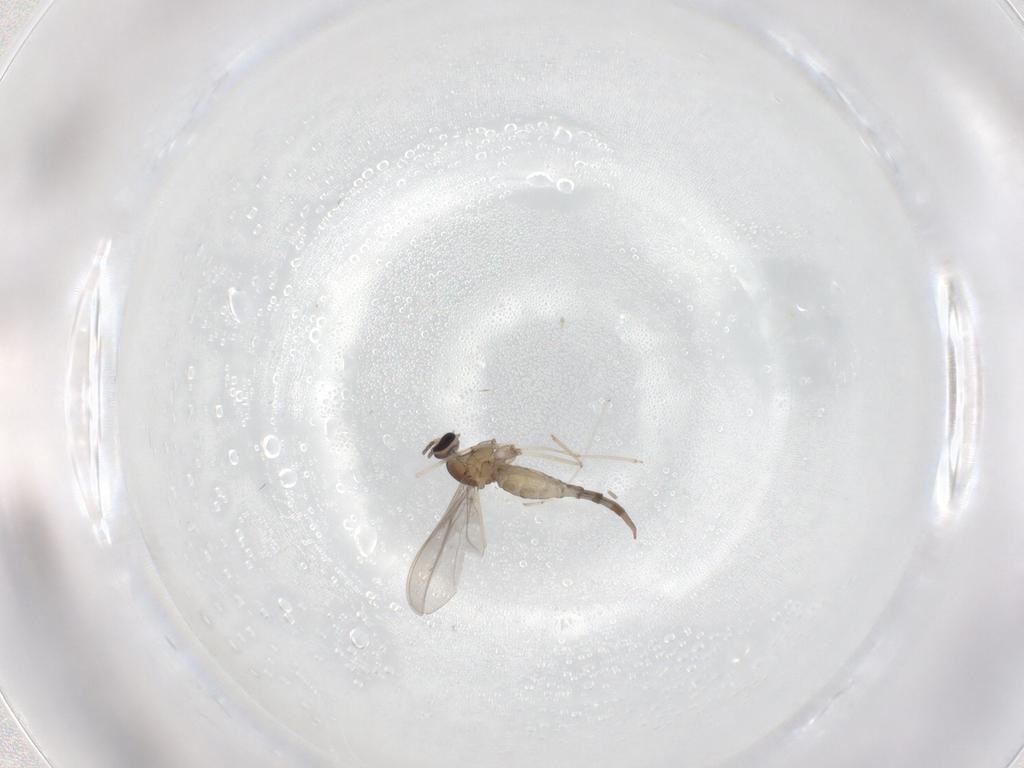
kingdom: Animalia
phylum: Arthropoda
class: Insecta
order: Diptera
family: Cecidomyiidae
